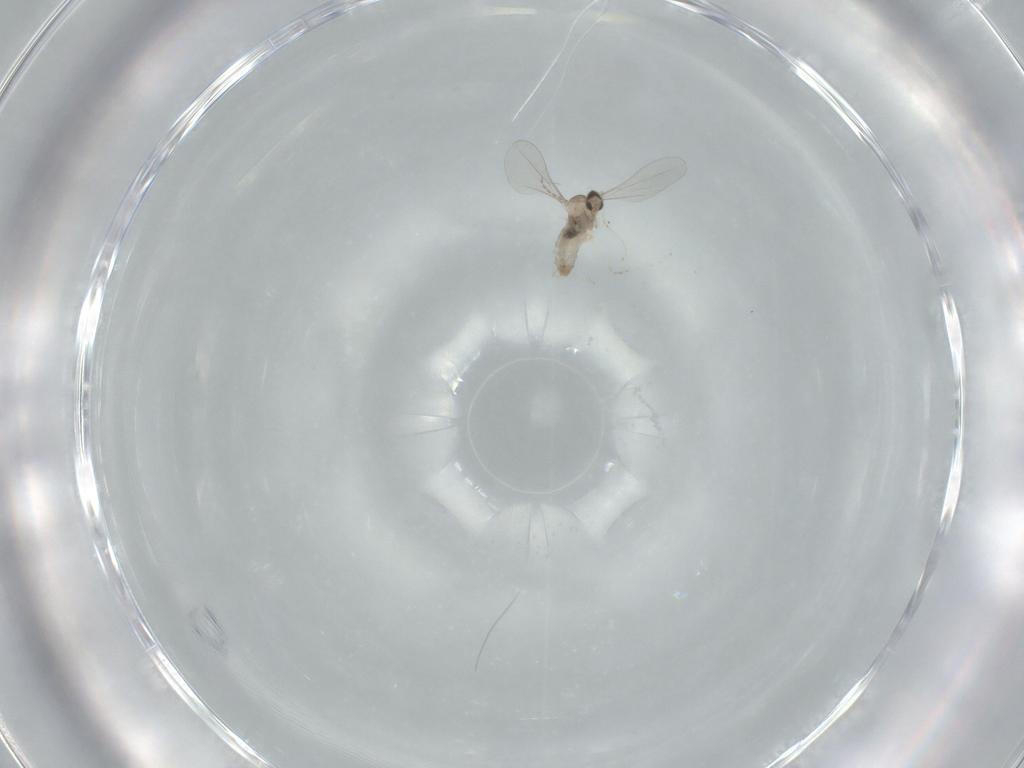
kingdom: Animalia
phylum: Arthropoda
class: Insecta
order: Diptera
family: Cecidomyiidae
